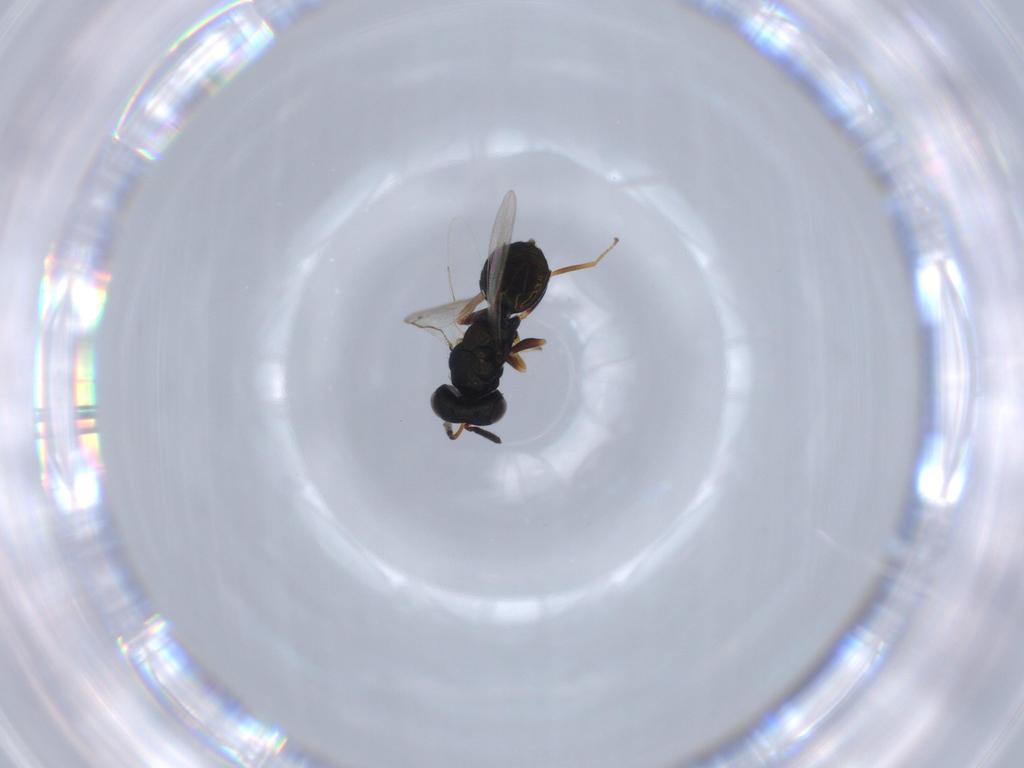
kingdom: Animalia
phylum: Arthropoda
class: Insecta
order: Hymenoptera
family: Pteromalidae
